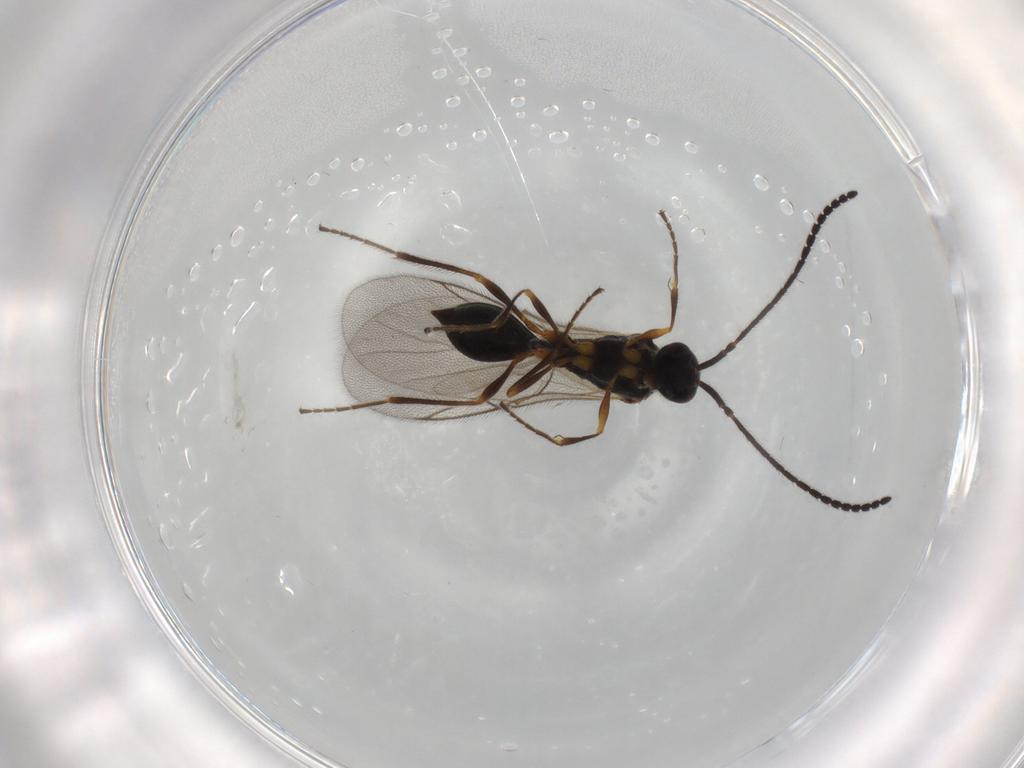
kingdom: Animalia
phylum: Arthropoda
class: Insecta
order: Hymenoptera
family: Diapriidae
